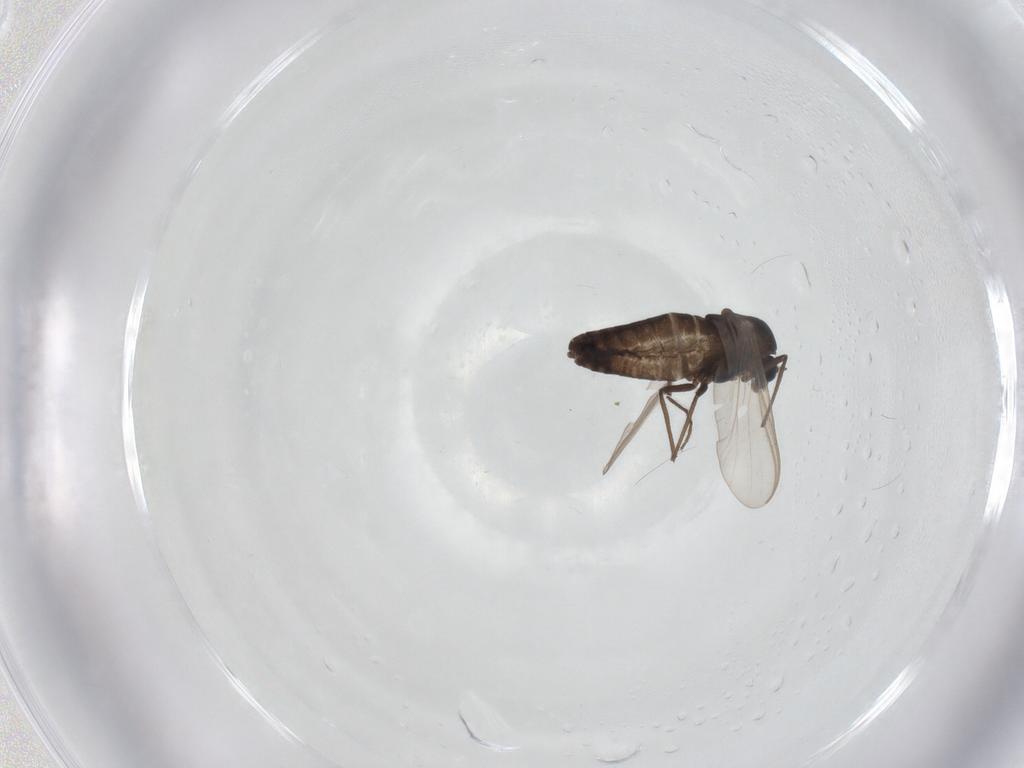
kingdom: Animalia
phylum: Arthropoda
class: Insecta
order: Diptera
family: Chironomidae
